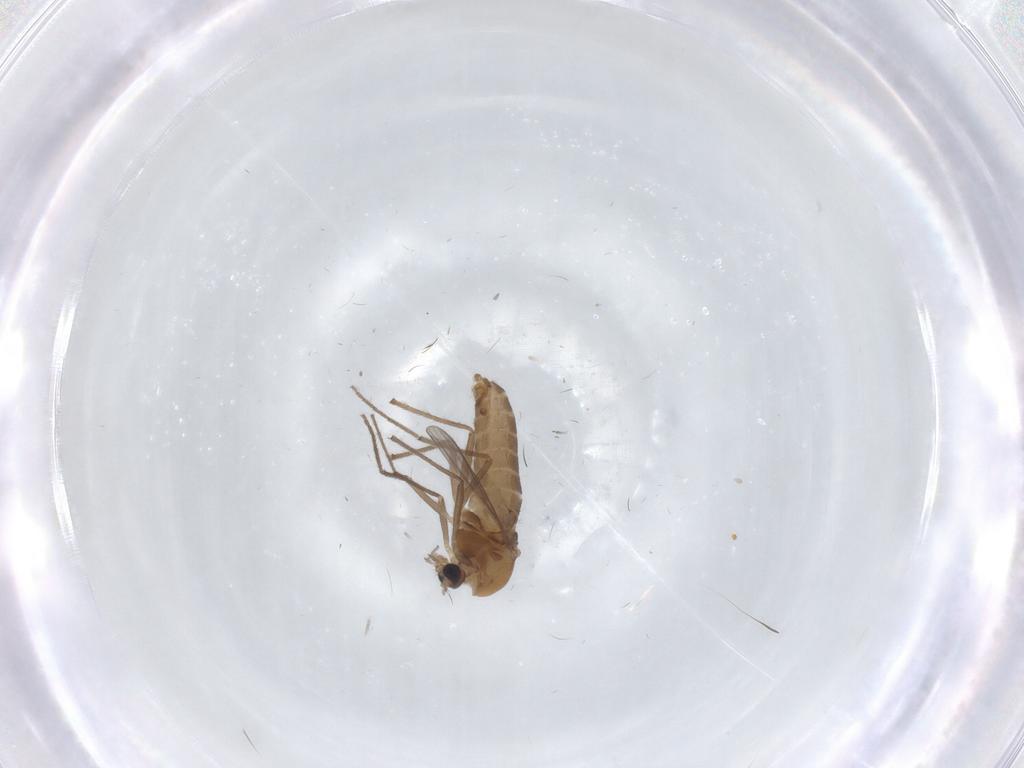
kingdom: Animalia
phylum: Arthropoda
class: Insecta
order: Diptera
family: Chironomidae
